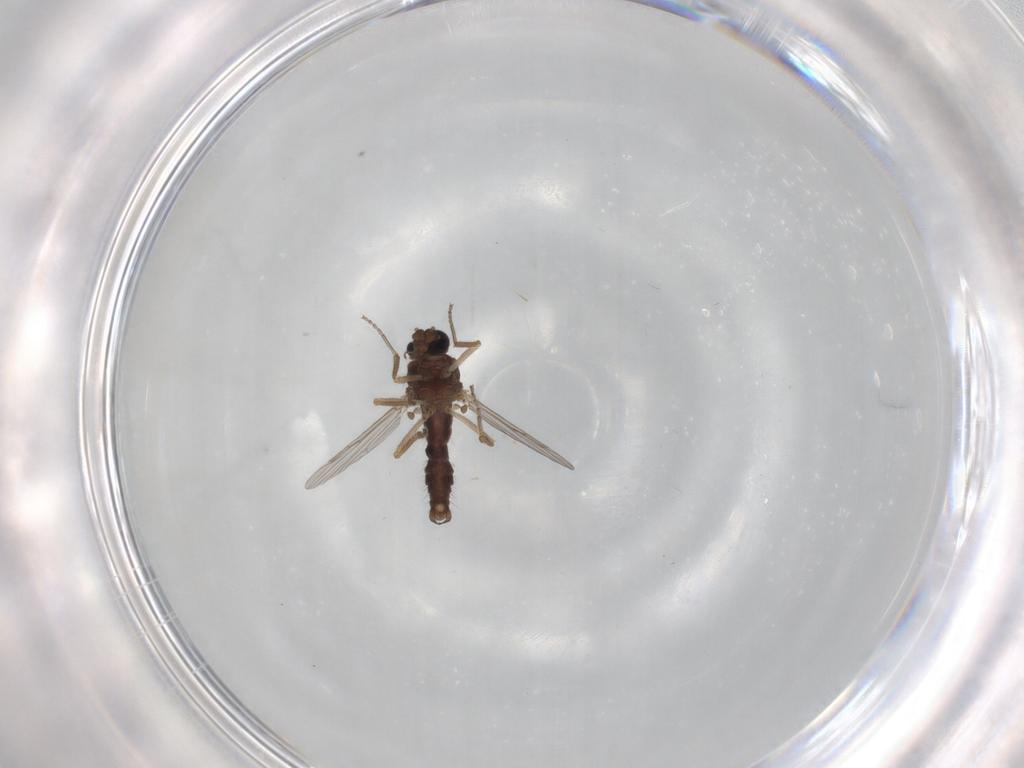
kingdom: Animalia
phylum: Arthropoda
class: Insecta
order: Diptera
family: Ceratopogonidae
